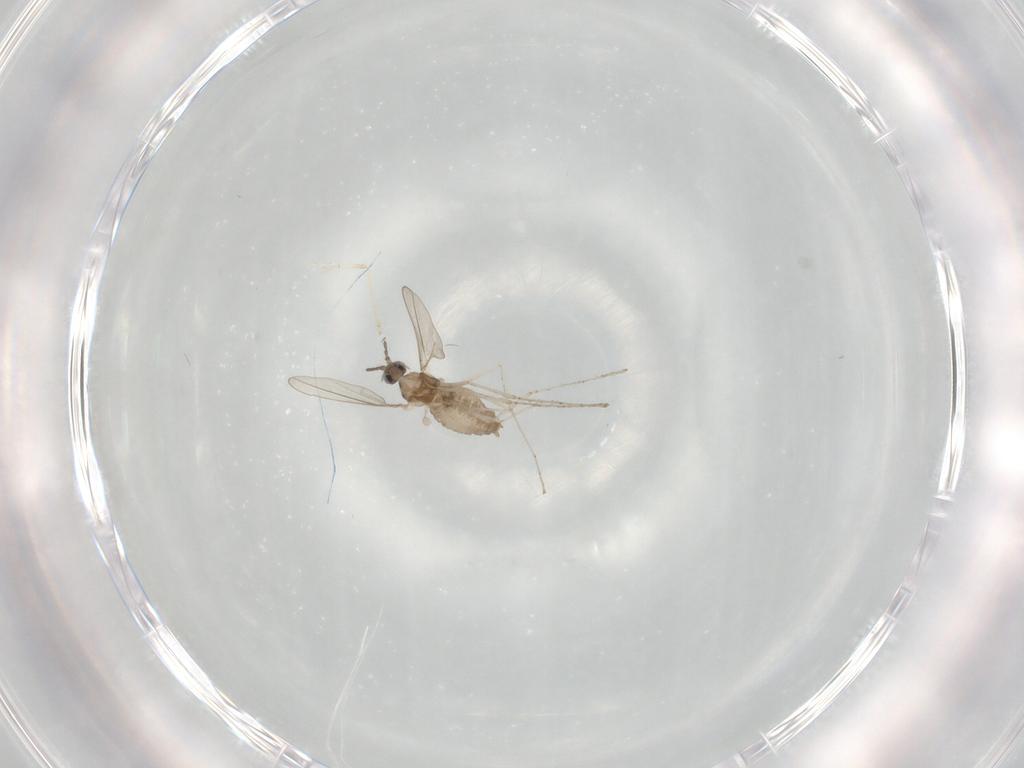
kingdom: Animalia
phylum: Arthropoda
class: Insecta
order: Diptera
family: Cecidomyiidae
